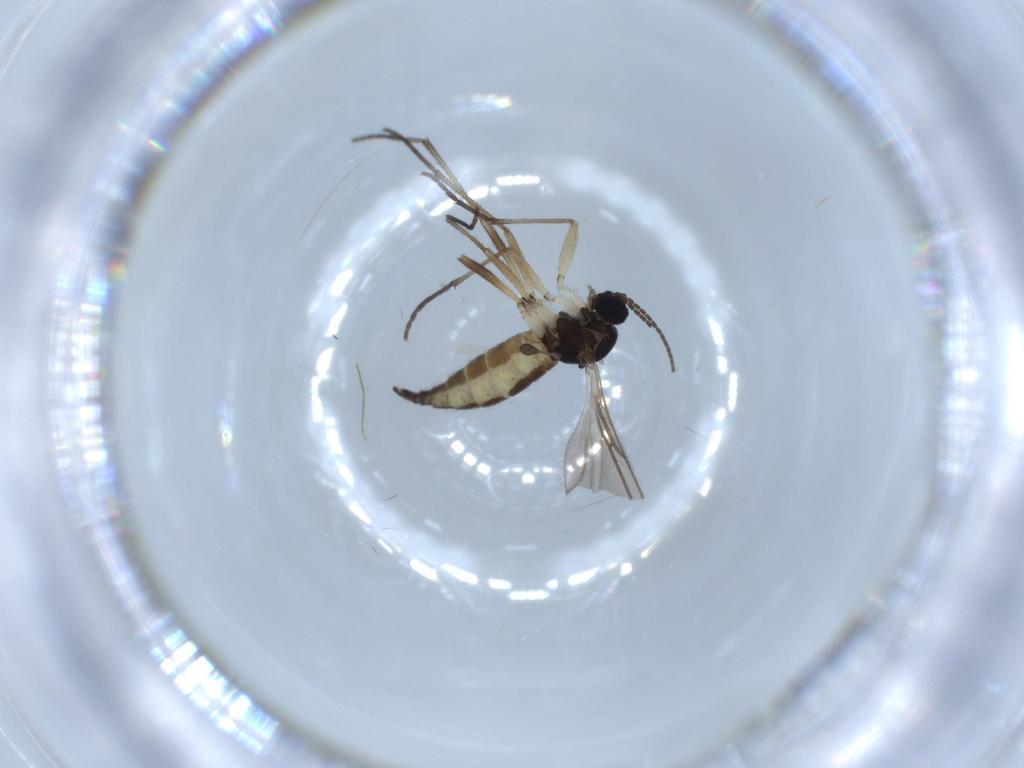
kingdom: Animalia
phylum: Arthropoda
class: Insecta
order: Diptera
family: Sciaridae
